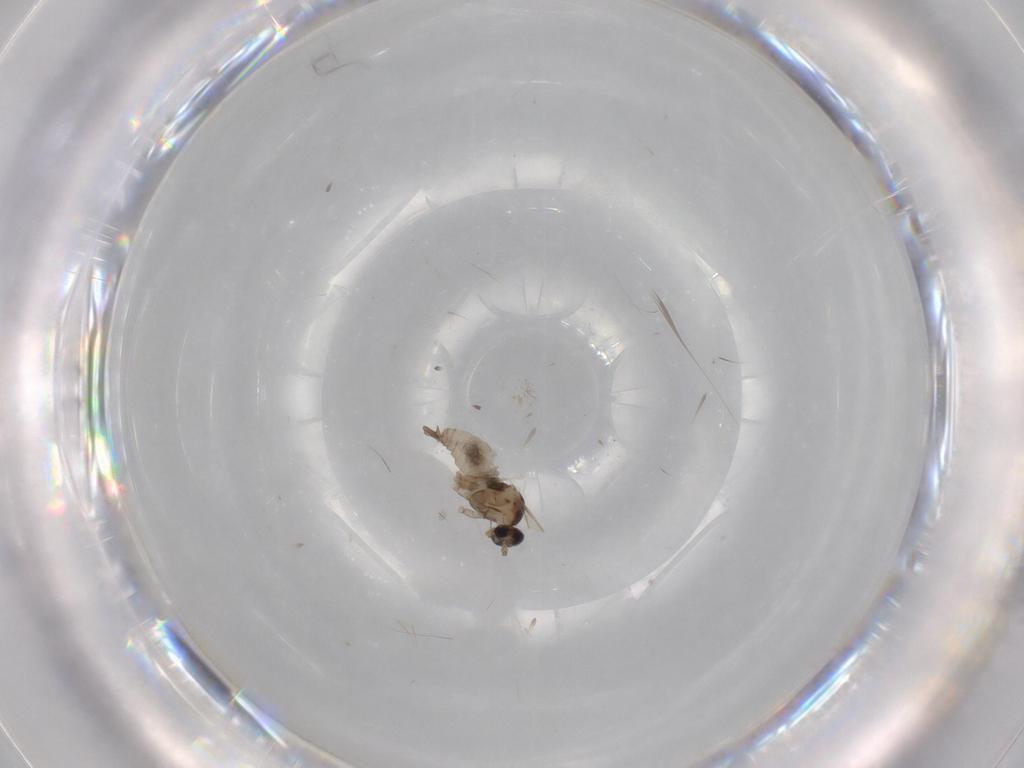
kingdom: Animalia
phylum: Arthropoda
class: Insecta
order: Diptera
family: Cecidomyiidae
